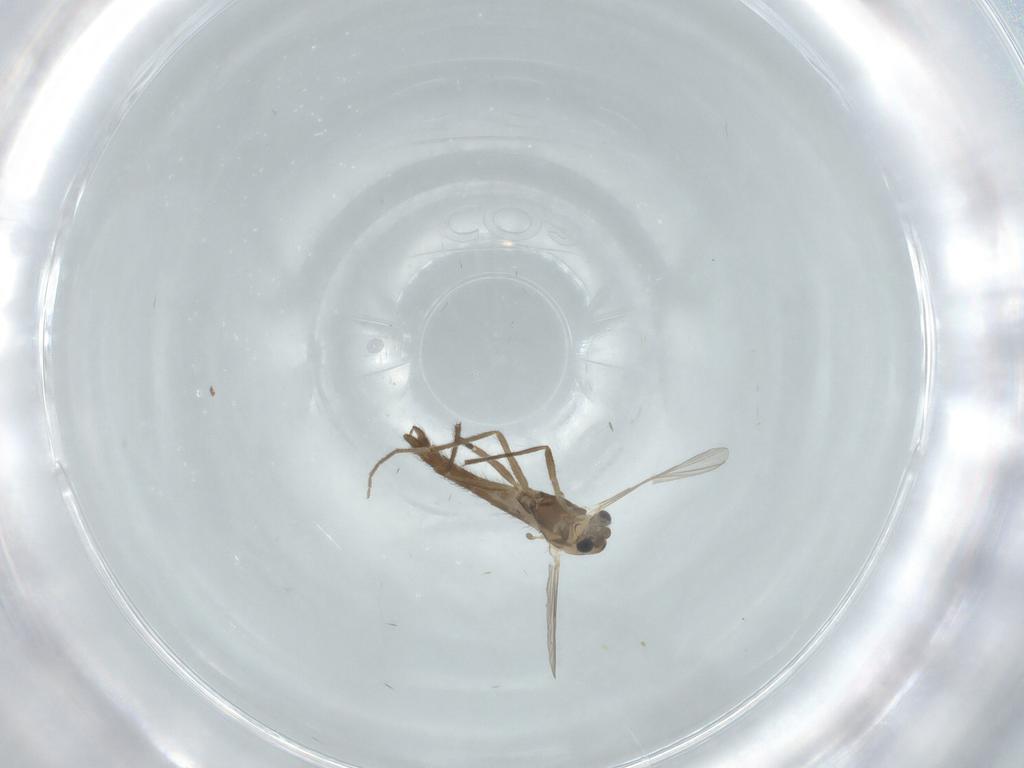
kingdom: Animalia
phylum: Arthropoda
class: Insecta
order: Diptera
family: Chironomidae
